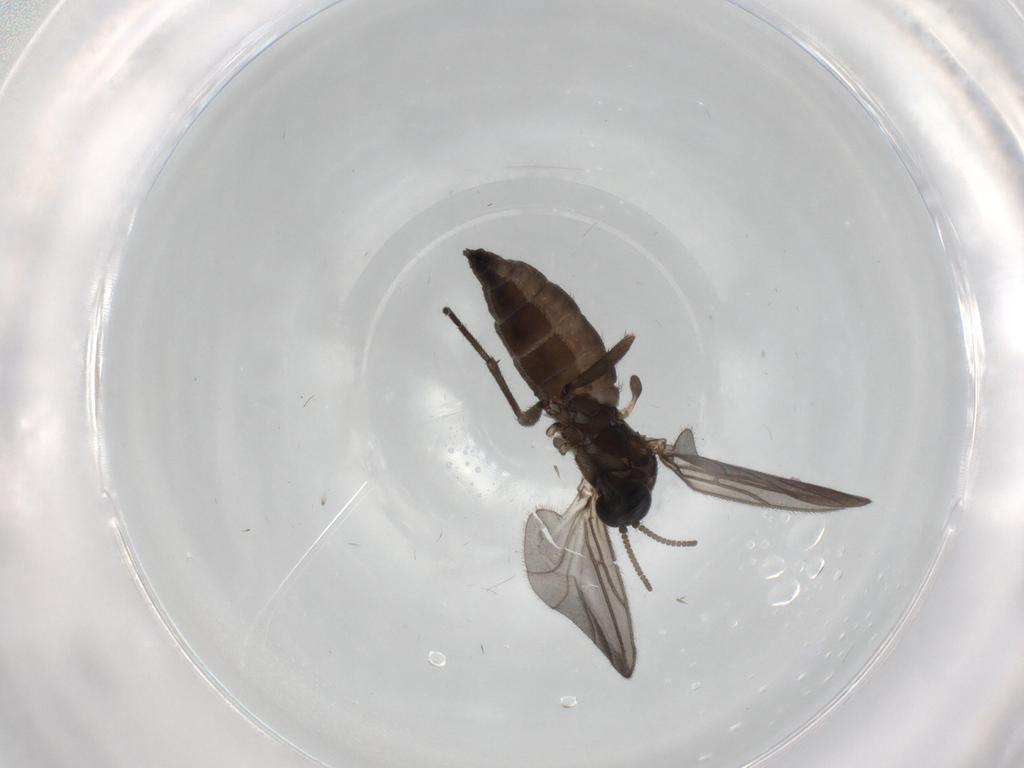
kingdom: Animalia
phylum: Arthropoda
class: Insecta
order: Diptera
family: Sciaridae
